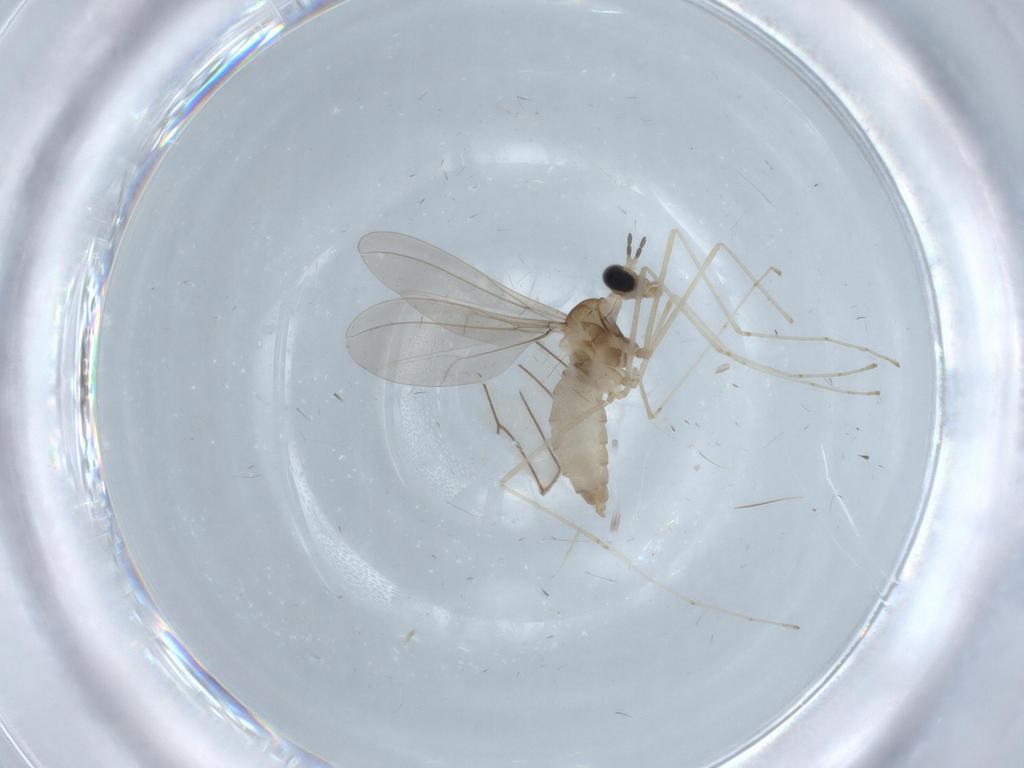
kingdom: Animalia
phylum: Arthropoda
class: Insecta
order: Diptera
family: Cecidomyiidae
